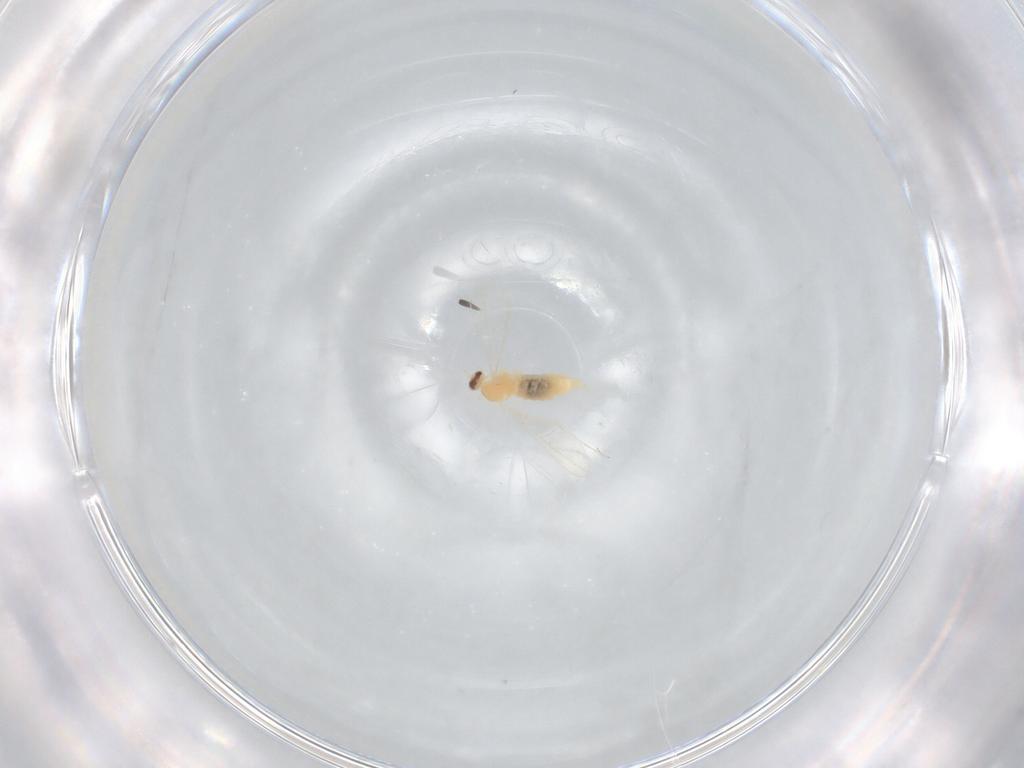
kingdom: Animalia
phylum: Arthropoda
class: Insecta
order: Diptera
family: Cecidomyiidae
